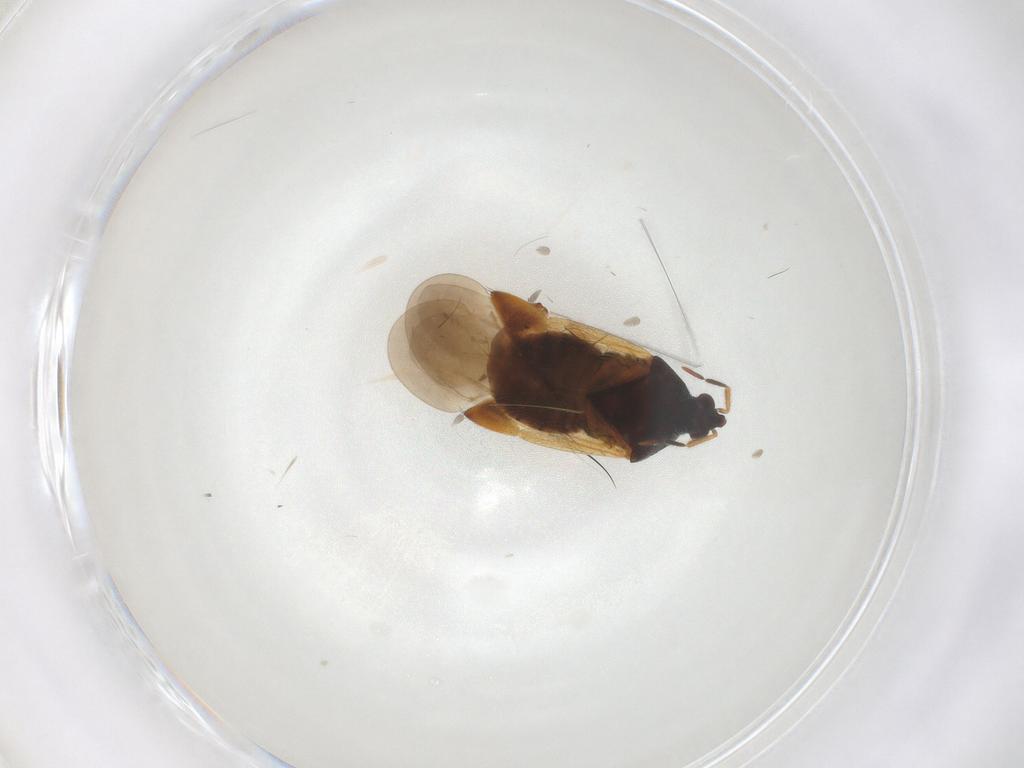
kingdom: Animalia
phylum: Arthropoda
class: Insecta
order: Hemiptera
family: Anthocoridae
